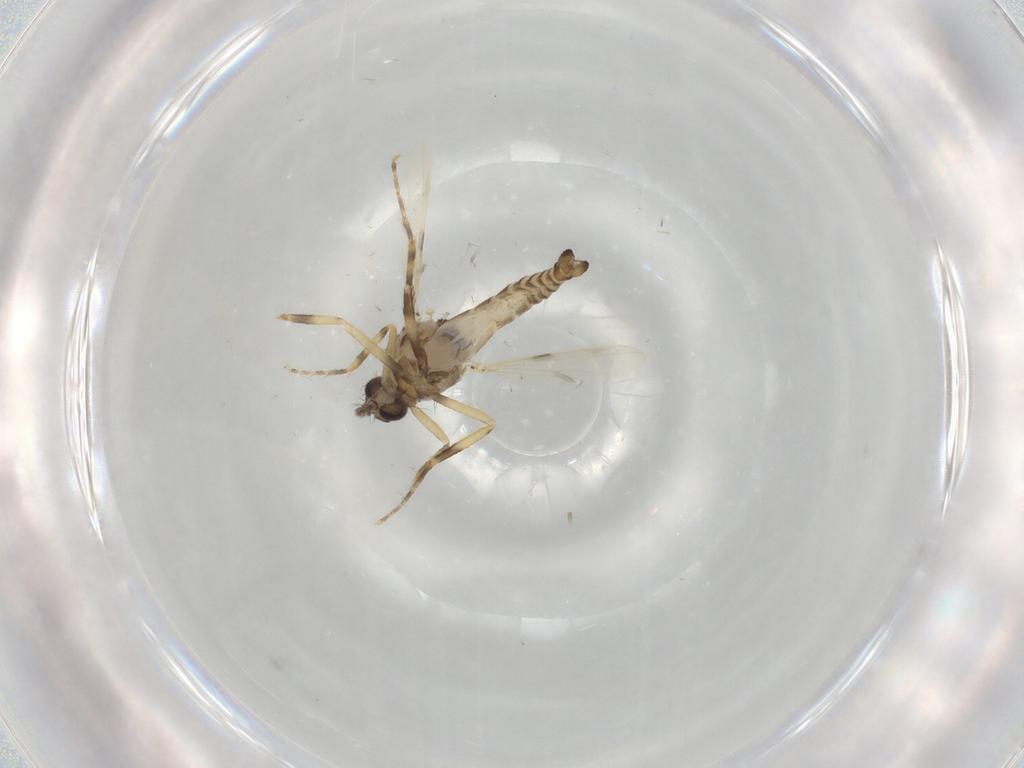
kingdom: Animalia
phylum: Arthropoda
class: Insecta
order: Diptera
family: Ceratopogonidae
